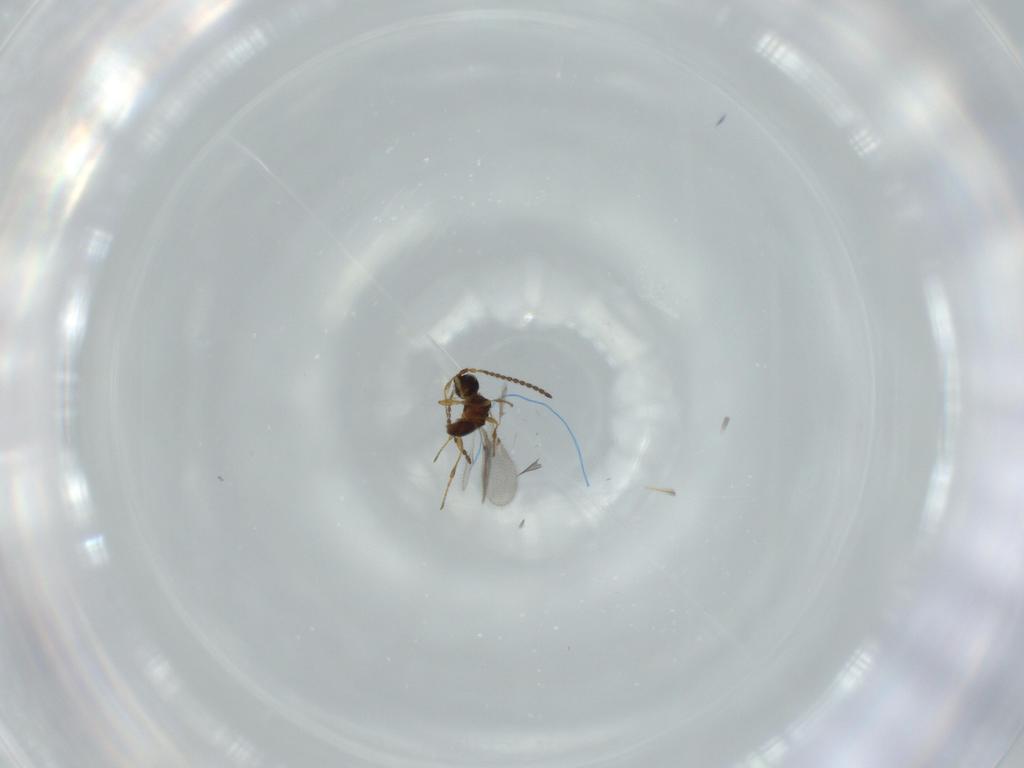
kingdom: Animalia
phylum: Arthropoda
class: Insecta
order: Hymenoptera
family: Diapriidae
